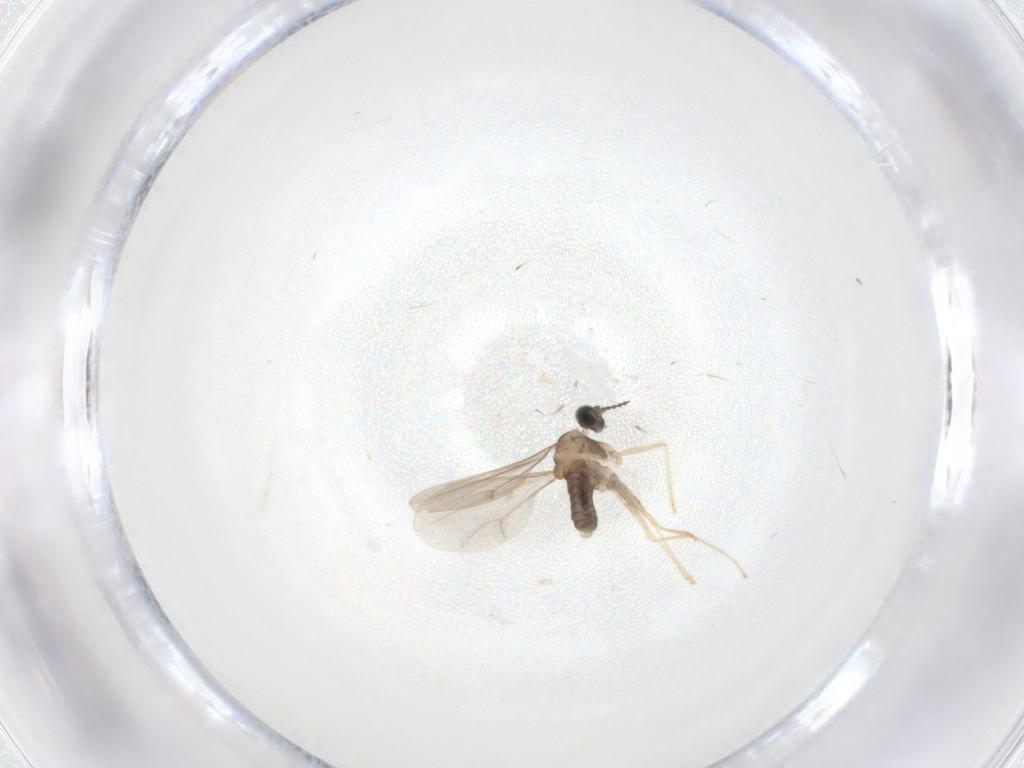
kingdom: Animalia
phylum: Arthropoda
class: Insecta
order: Diptera
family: Cecidomyiidae
